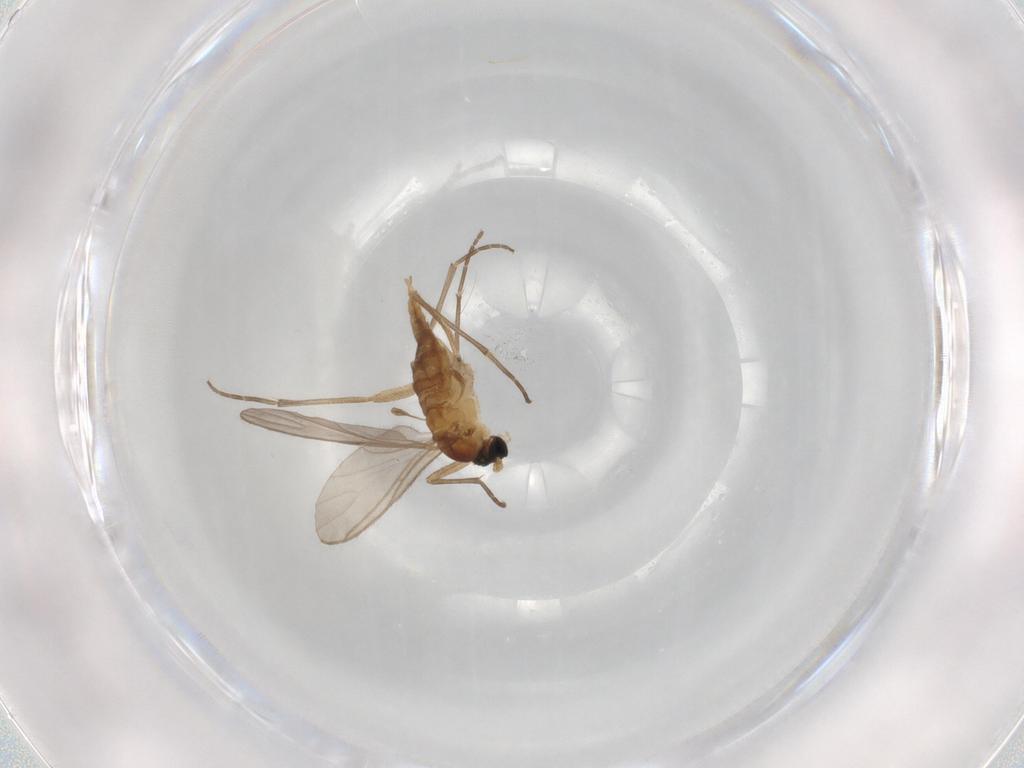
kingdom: Animalia
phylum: Arthropoda
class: Insecta
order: Diptera
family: Sciaridae
